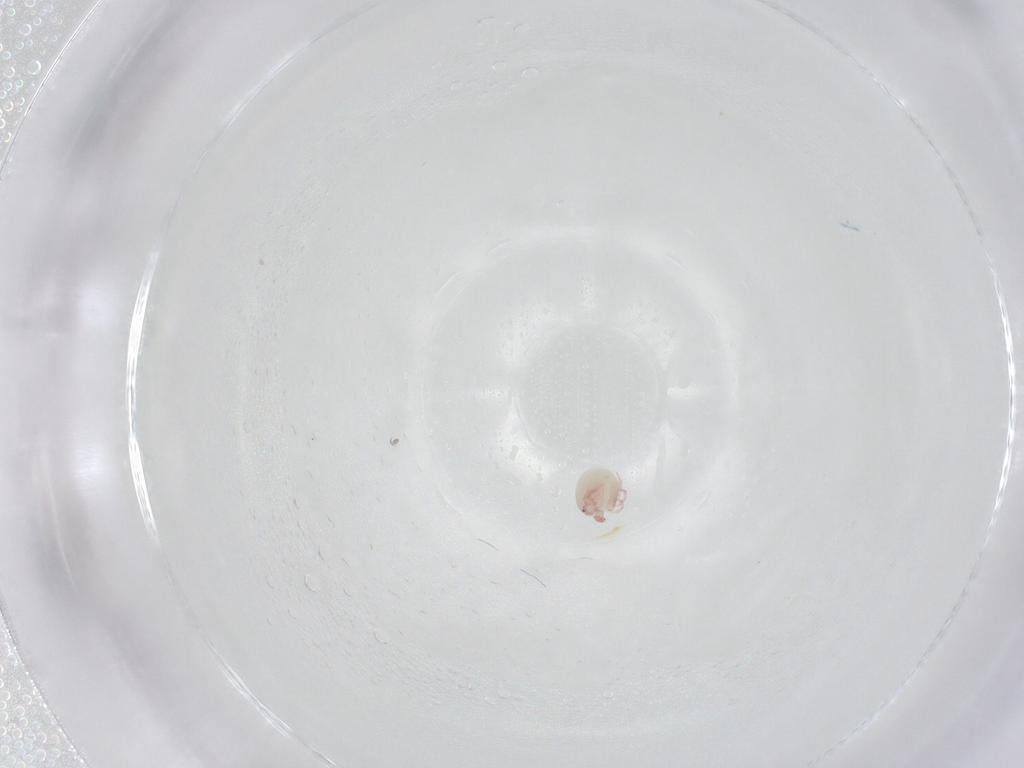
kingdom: Animalia
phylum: Arthropoda
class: Arachnida
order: Trombidiformes
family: Pionidae
